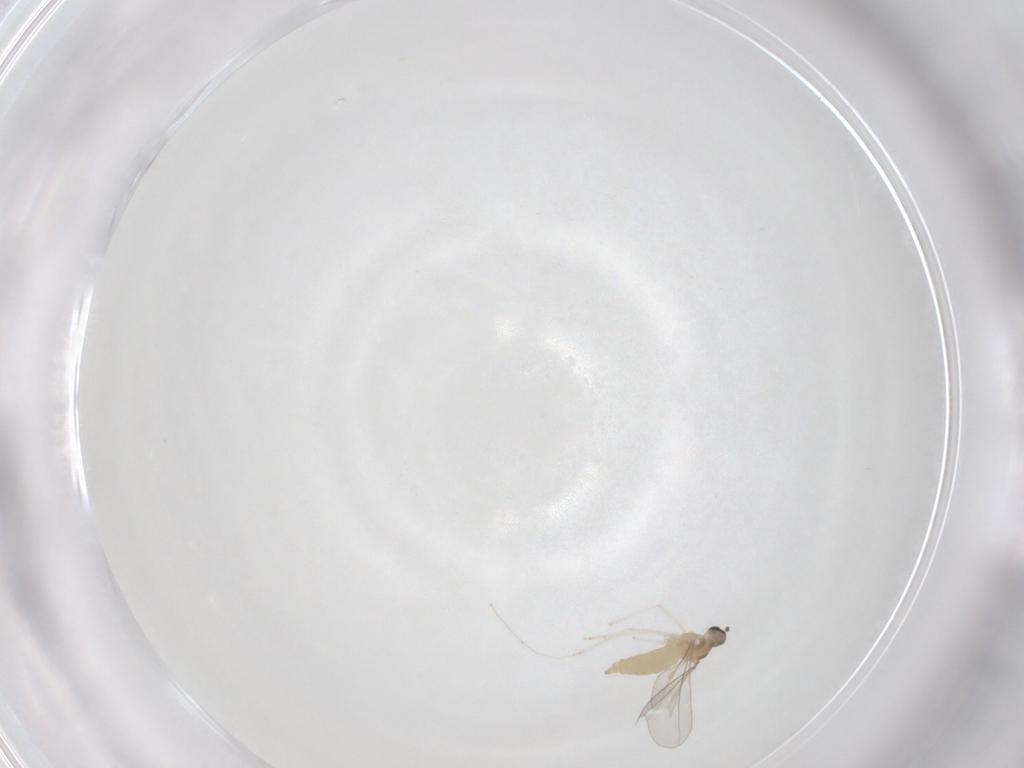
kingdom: Animalia
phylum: Arthropoda
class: Insecta
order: Diptera
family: Cecidomyiidae
